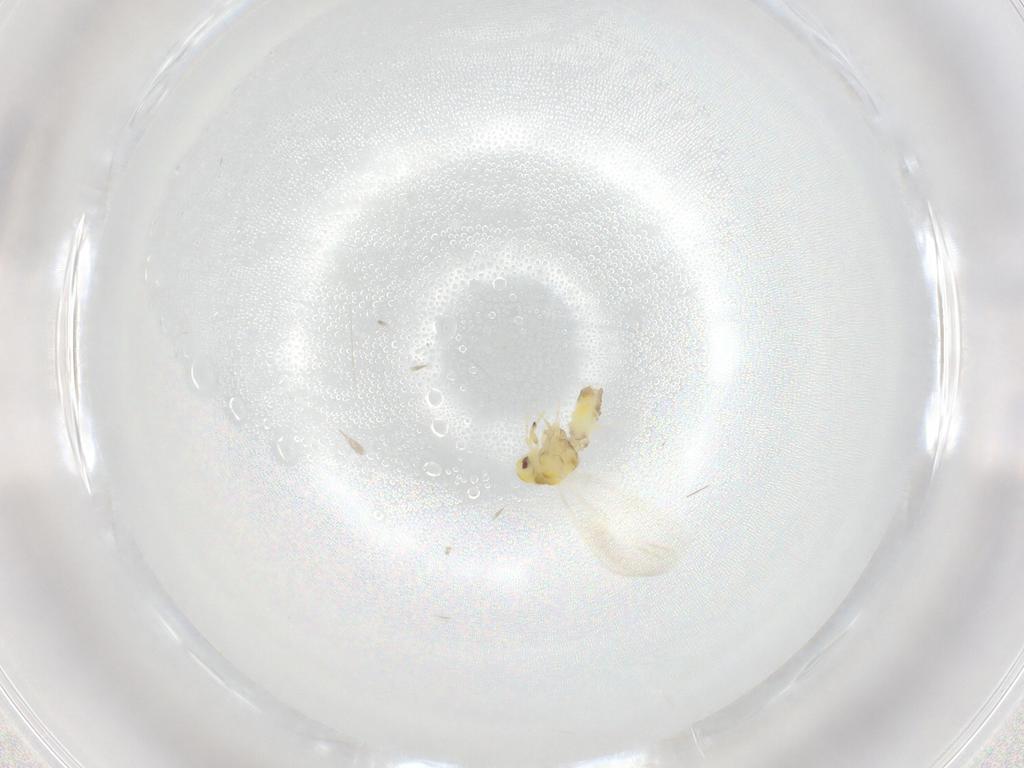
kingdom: Animalia
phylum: Arthropoda
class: Insecta
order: Hemiptera
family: Aleyrodidae
